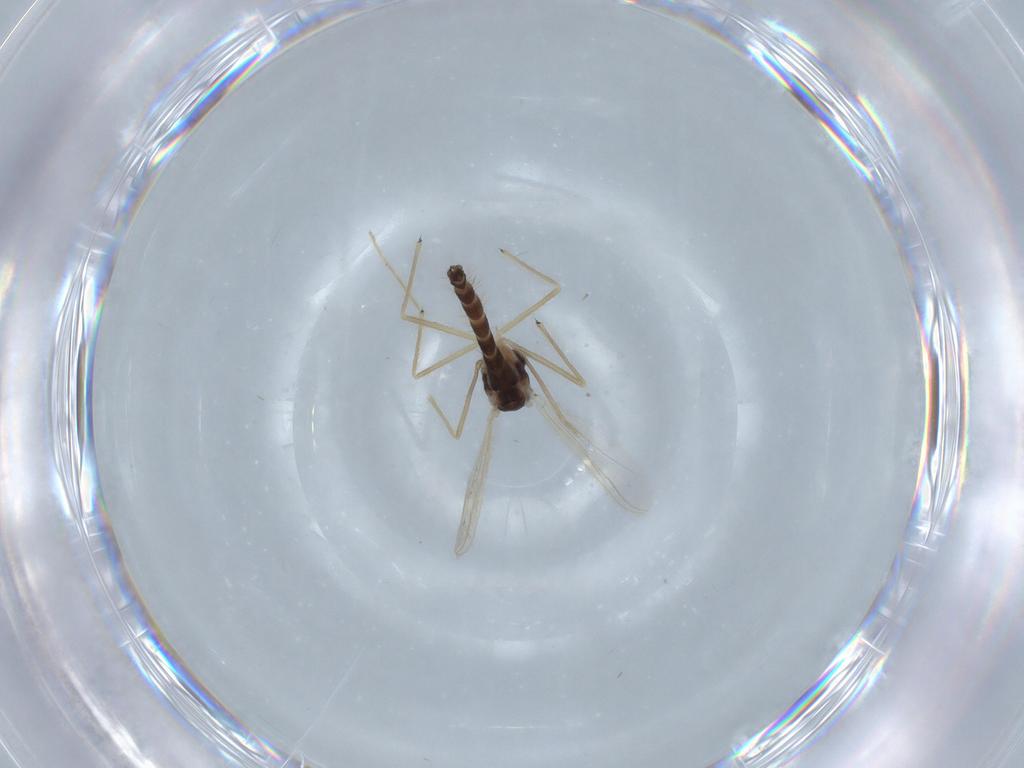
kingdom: Animalia
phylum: Arthropoda
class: Insecta
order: Diptera
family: Chironomidae
